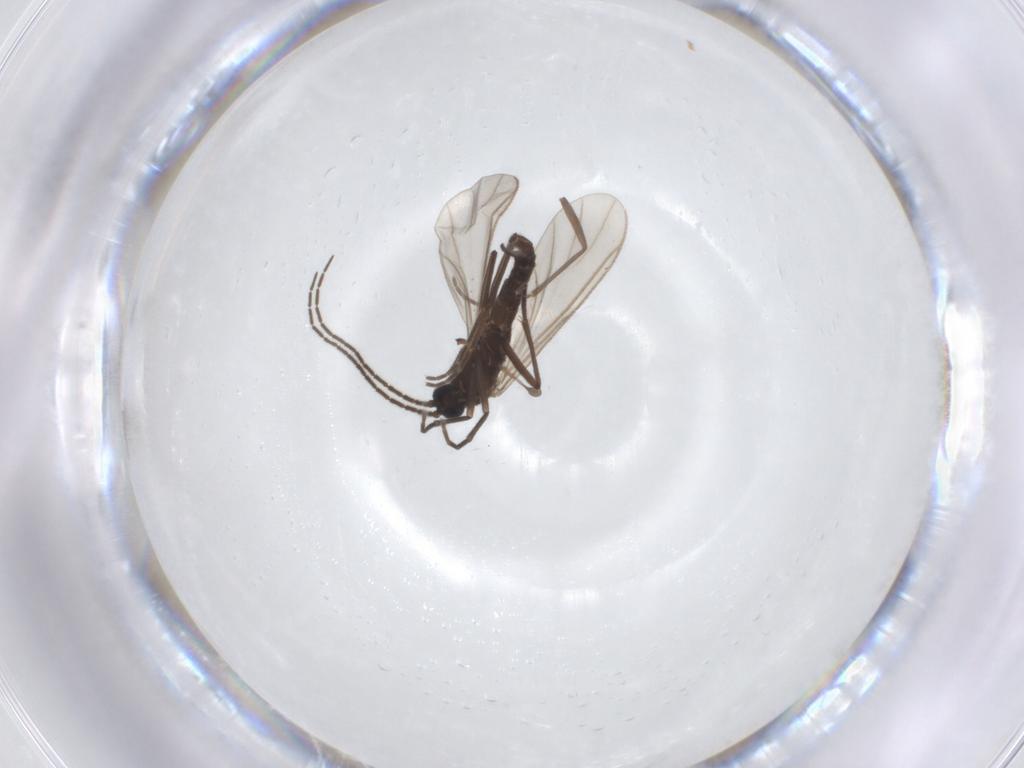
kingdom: Animalia
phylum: Arthropoda
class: Insecta
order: Diptera
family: Sciaridae
